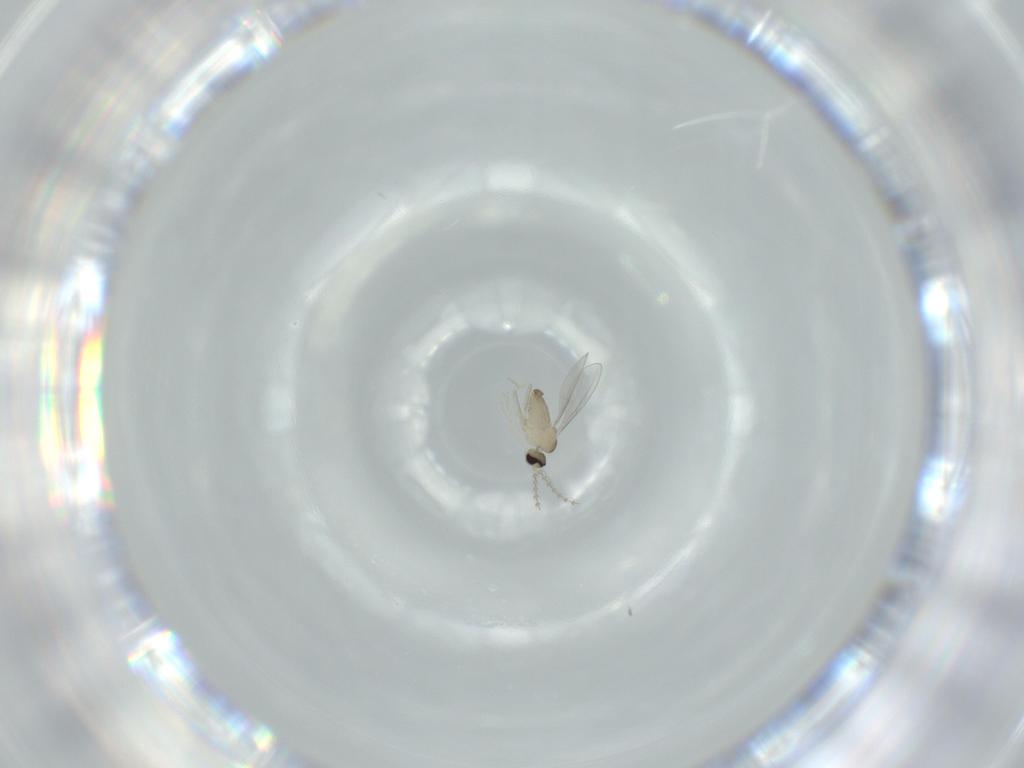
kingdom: Animalia
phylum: Arthropoda
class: Insecta
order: Diptera
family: Cecidomyiidae
